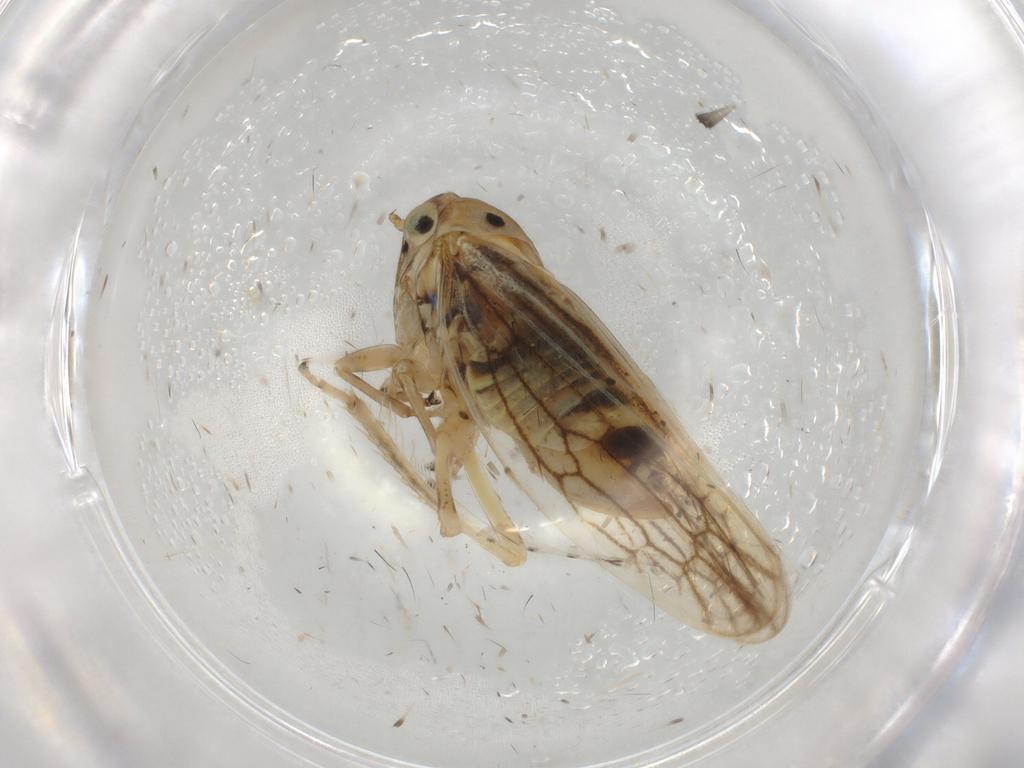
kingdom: Animalia
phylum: Arthropoda
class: Insecta
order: Hemiptera
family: Cicadellidae
